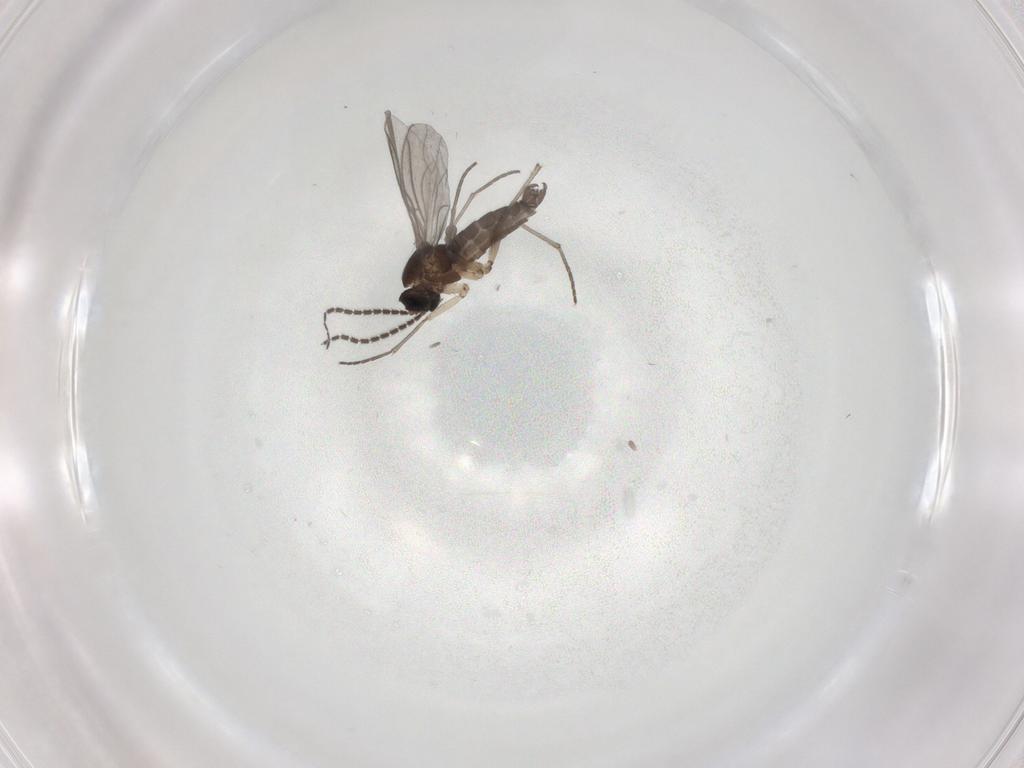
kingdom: Animalia
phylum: Arthropoda
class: Insecta
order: Diptera
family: Sciaridae
